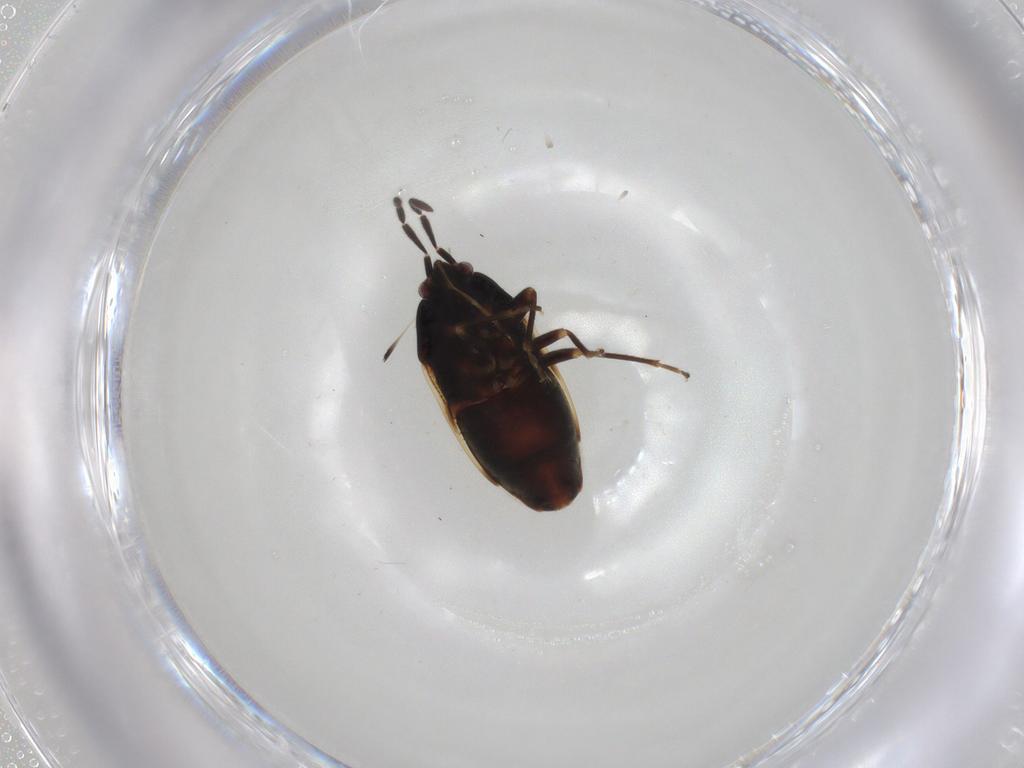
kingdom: Animalia
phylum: Arthropoda
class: Insecta
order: Hemiptera
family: Rhyparochromidae
